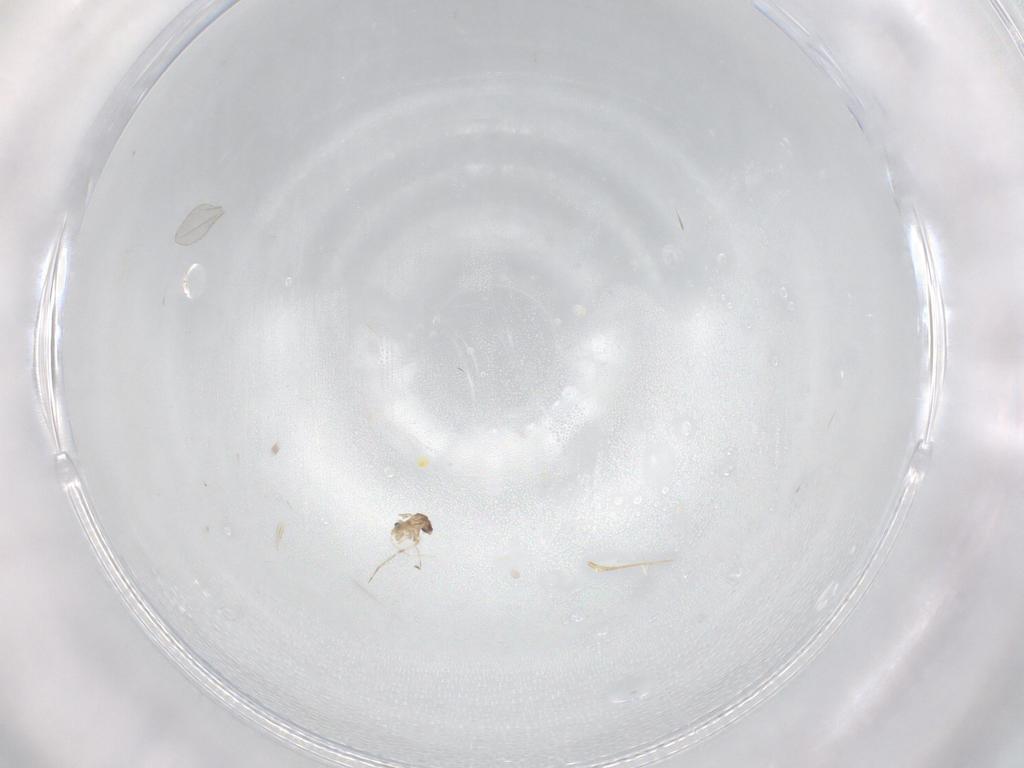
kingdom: Animalia
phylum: Arthropoda
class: Insecta
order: Diptera
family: Cecidomyiidae
